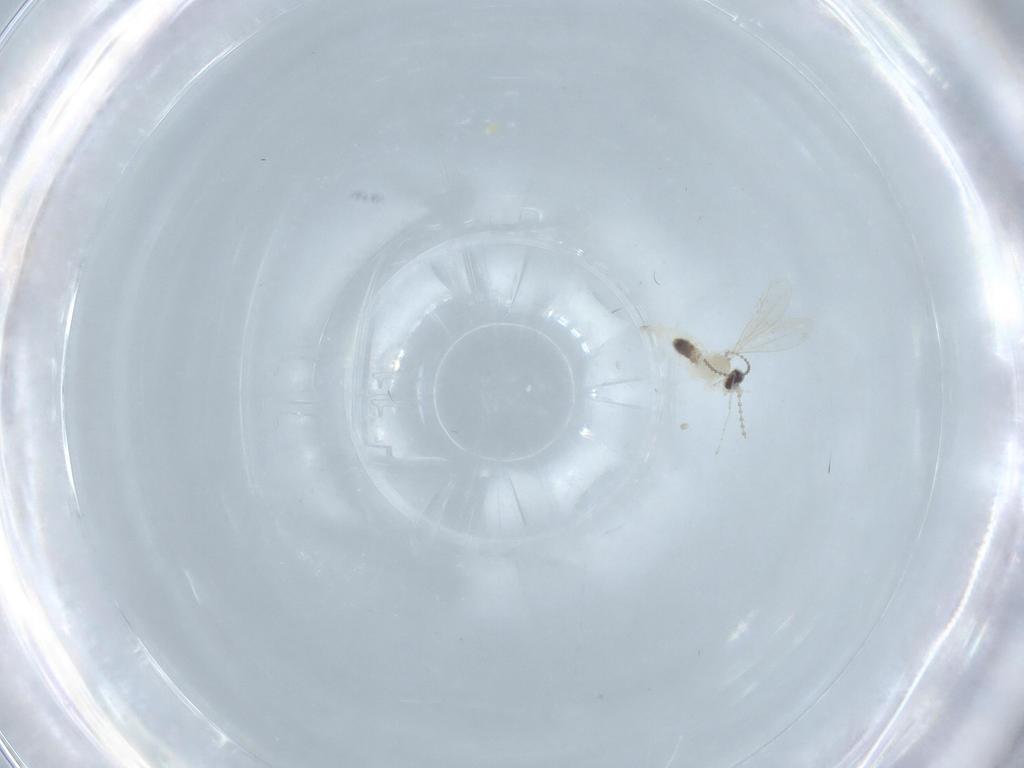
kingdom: Animalia
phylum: Arthropoda
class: Insecta
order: Diptera
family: Cecidomyiidae
